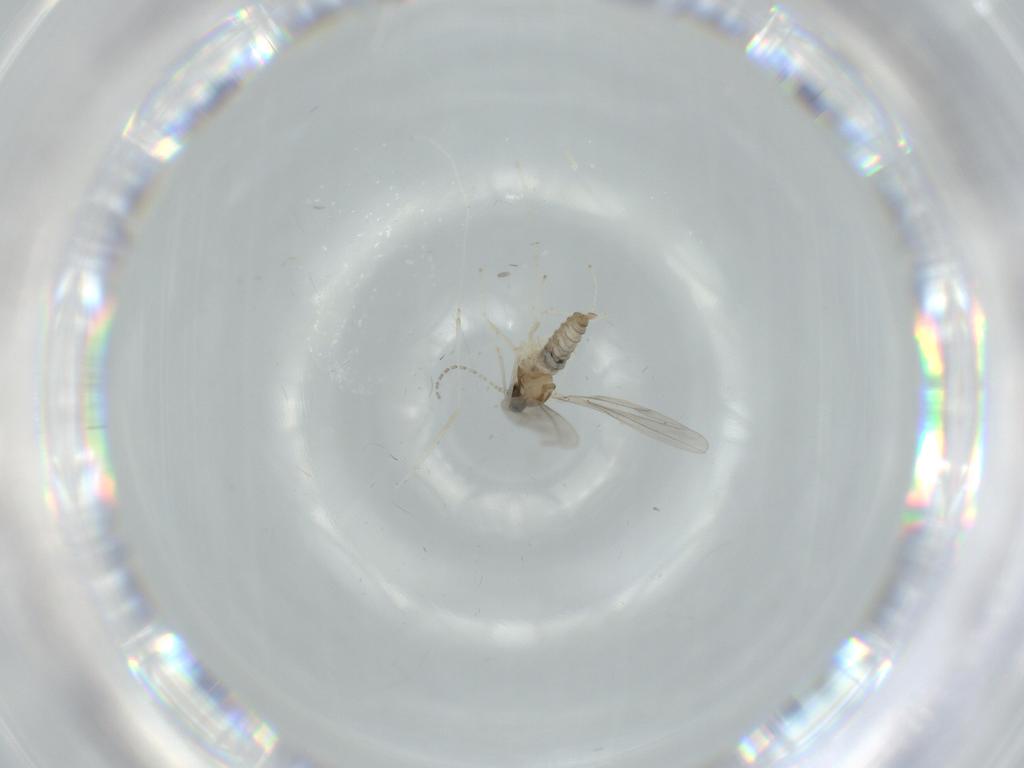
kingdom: Animalia
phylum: Arthropoda
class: Insecta
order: Diptera
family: Cecidomyiidae
